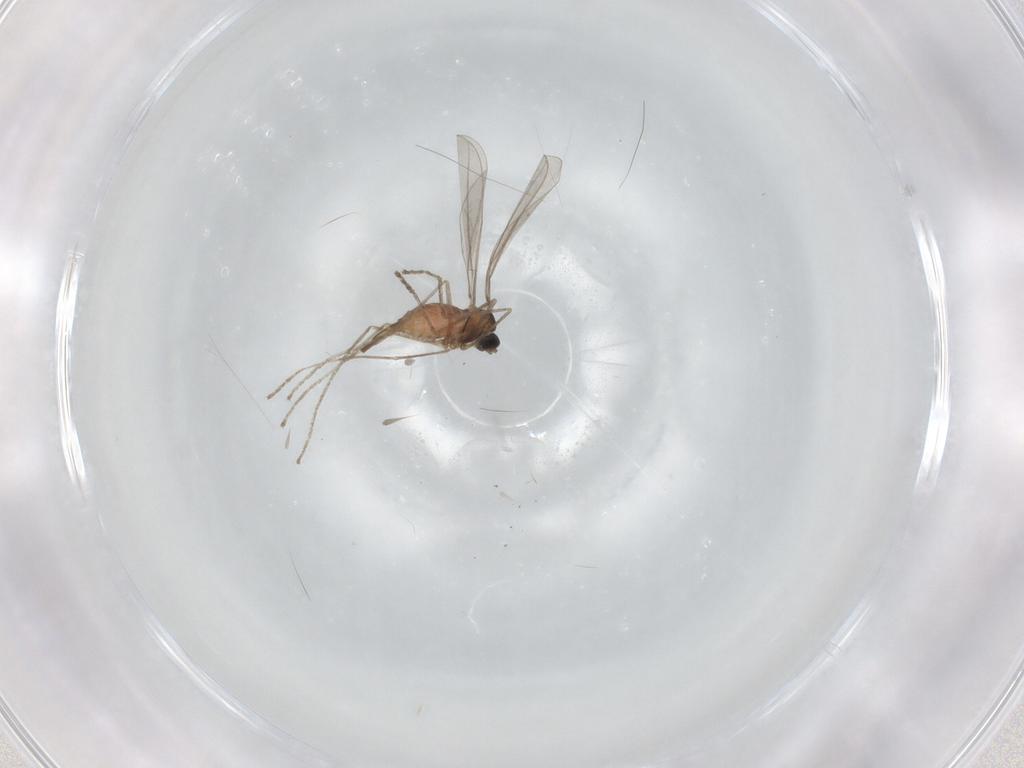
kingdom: Animalia
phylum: Arthropoda
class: Insecta
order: Diptera
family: Chironomidae
